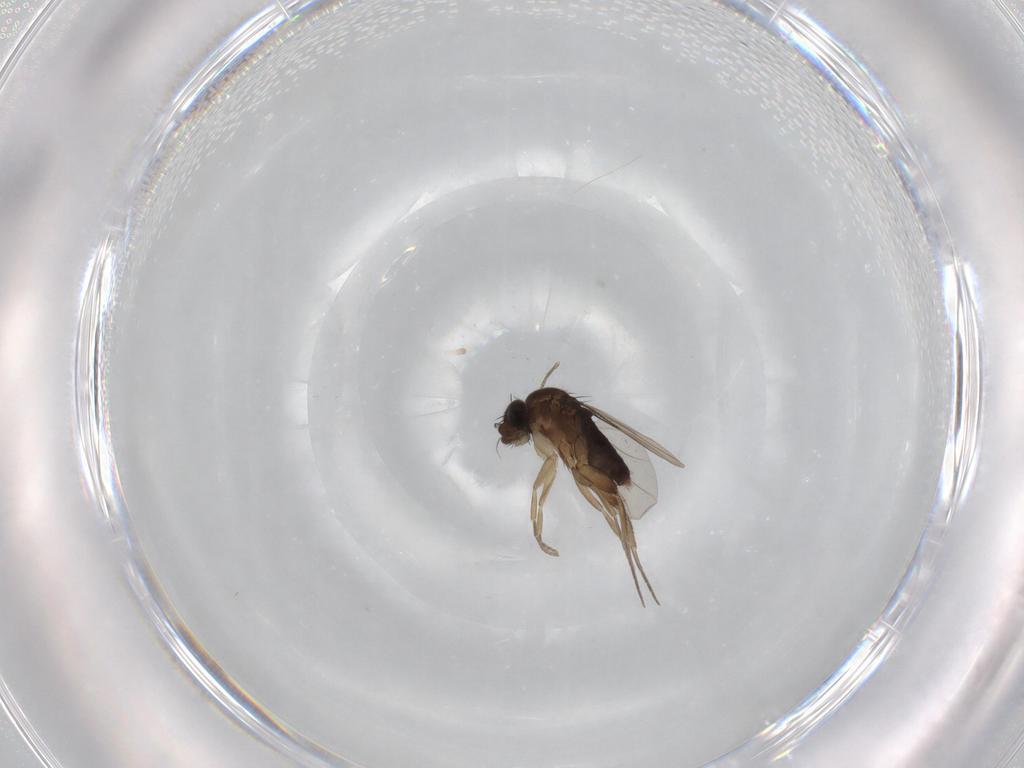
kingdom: Animalia
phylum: Arthropoda
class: Insecta
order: Diptera
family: Phoridae
